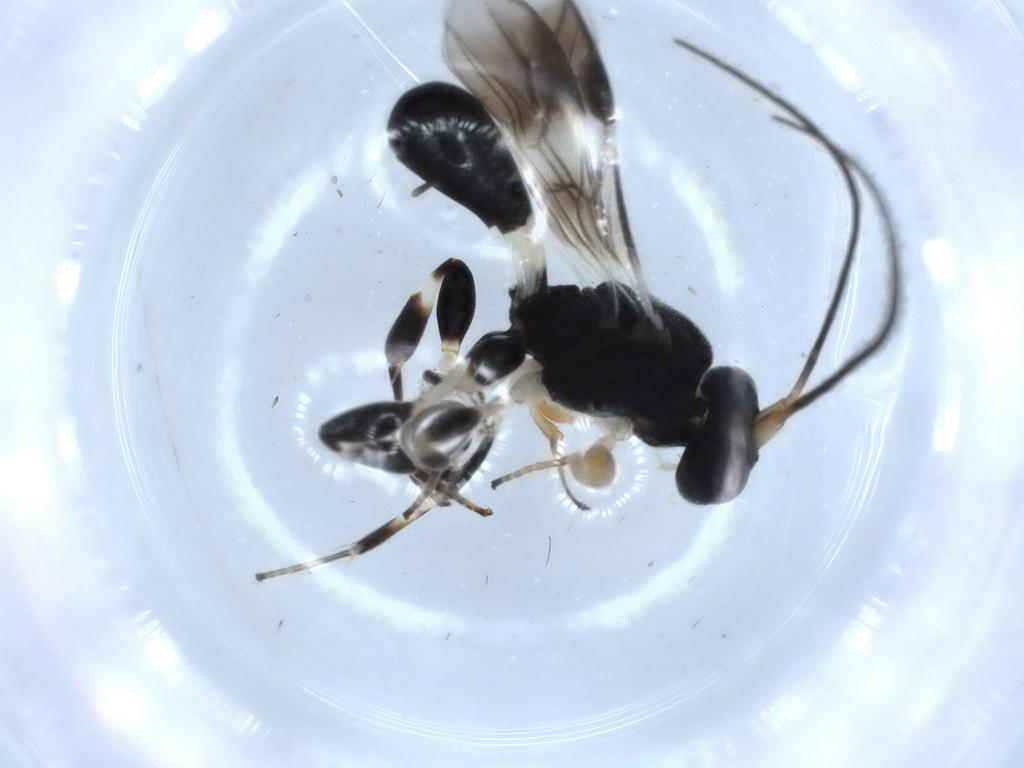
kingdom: Animalia
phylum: Arthropoda
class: Insecta
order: Hymenoptera
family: Scelionidae
